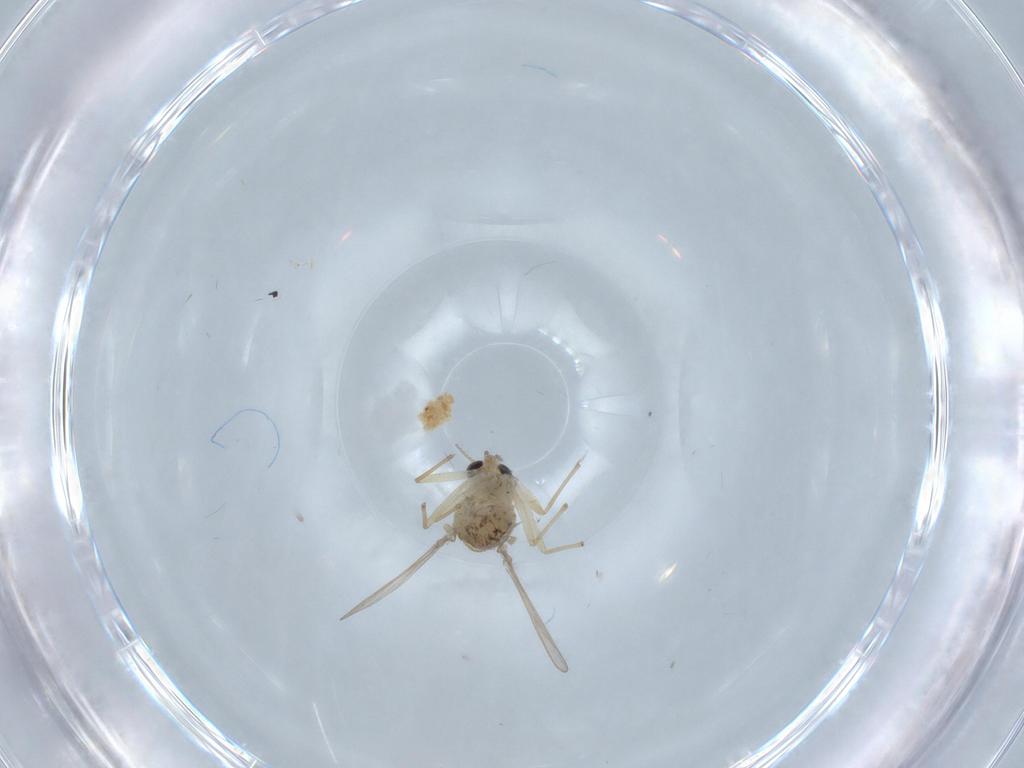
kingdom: Animalia
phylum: Arthropoda
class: Insecta
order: Diptera
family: Chironomidae
